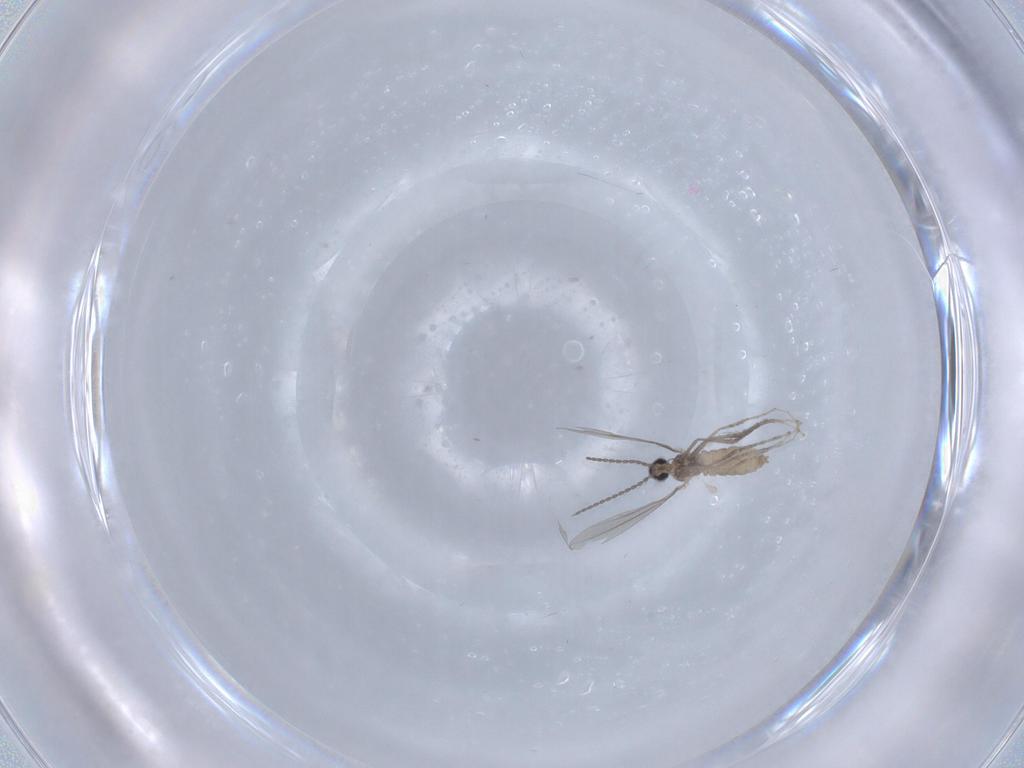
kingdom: Animalia
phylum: Arthropoda
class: Insecta
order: Diptera
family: Cecidomyiidae
